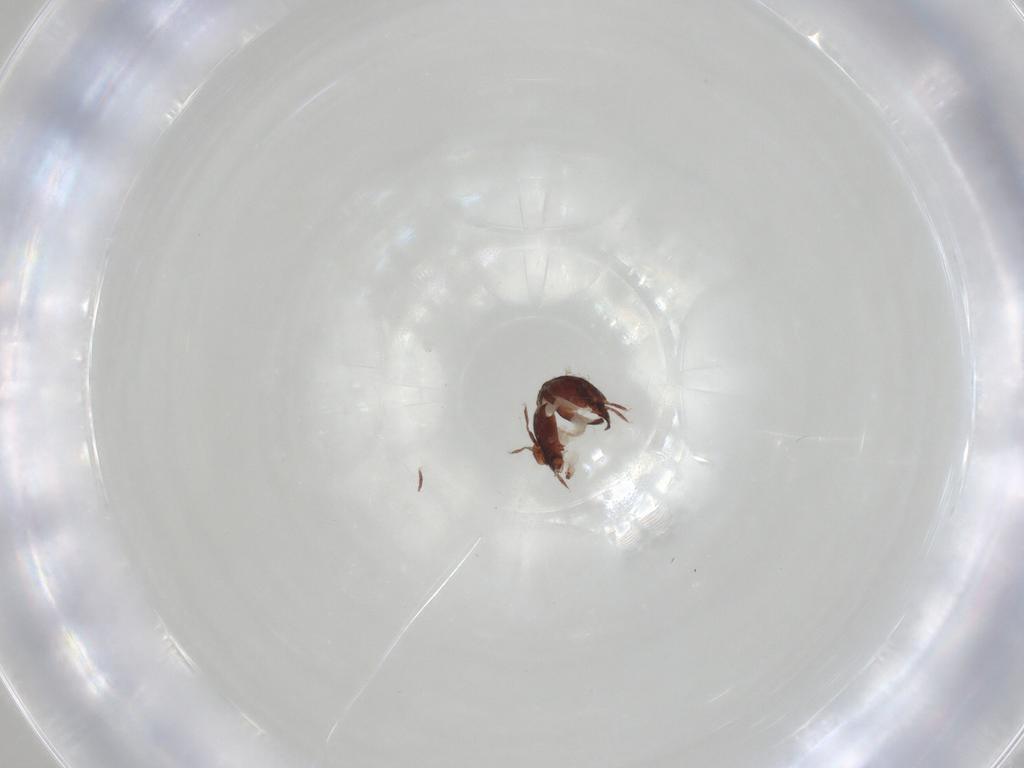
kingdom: Animalia
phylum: Arthropoda
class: Arachnida
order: Sarcoptiformes
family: Humerobatidae
